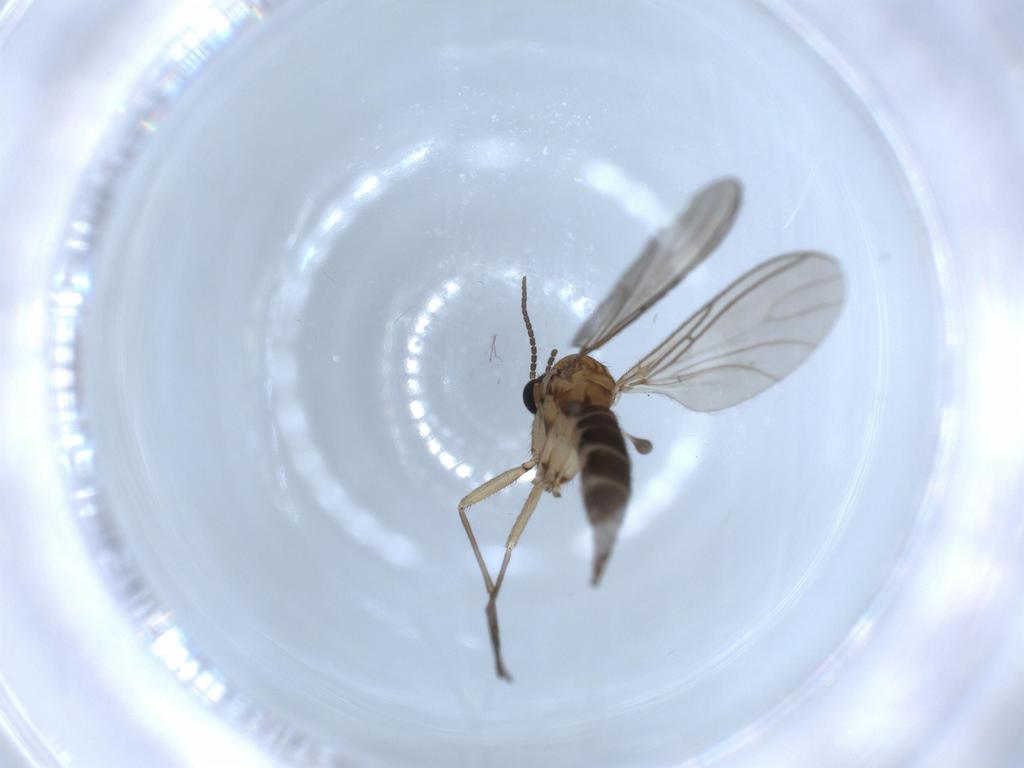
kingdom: Animalia
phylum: Arthropoda
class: Insecta
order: Diptera
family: Sciaridae
